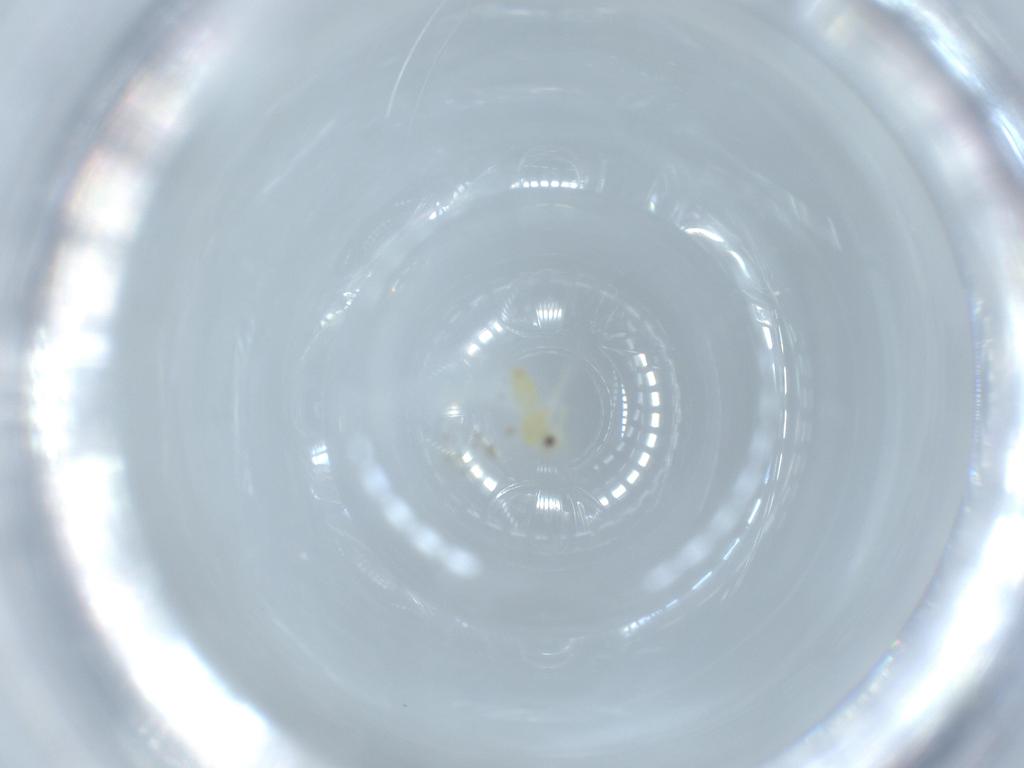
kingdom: Animalia
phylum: Arthropoda
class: Insecta
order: Hemiptera
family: Aleyrodidae
